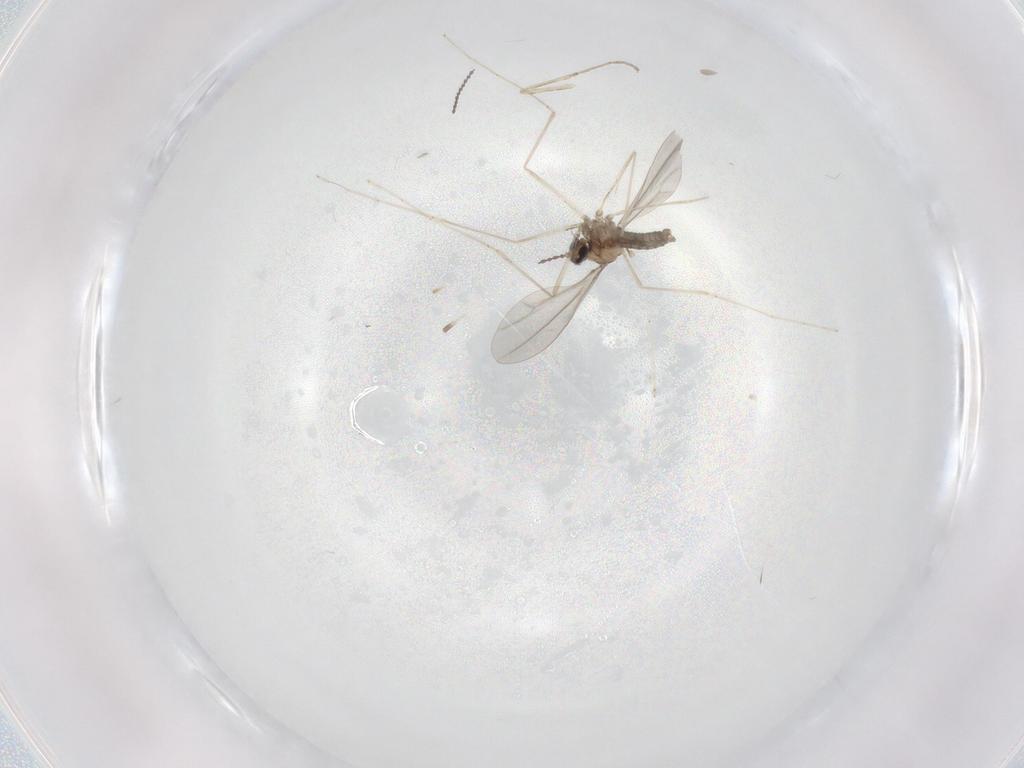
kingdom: Animalia
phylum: Arthropoda
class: Insecta
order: Diptera
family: Cecidomyiidae
